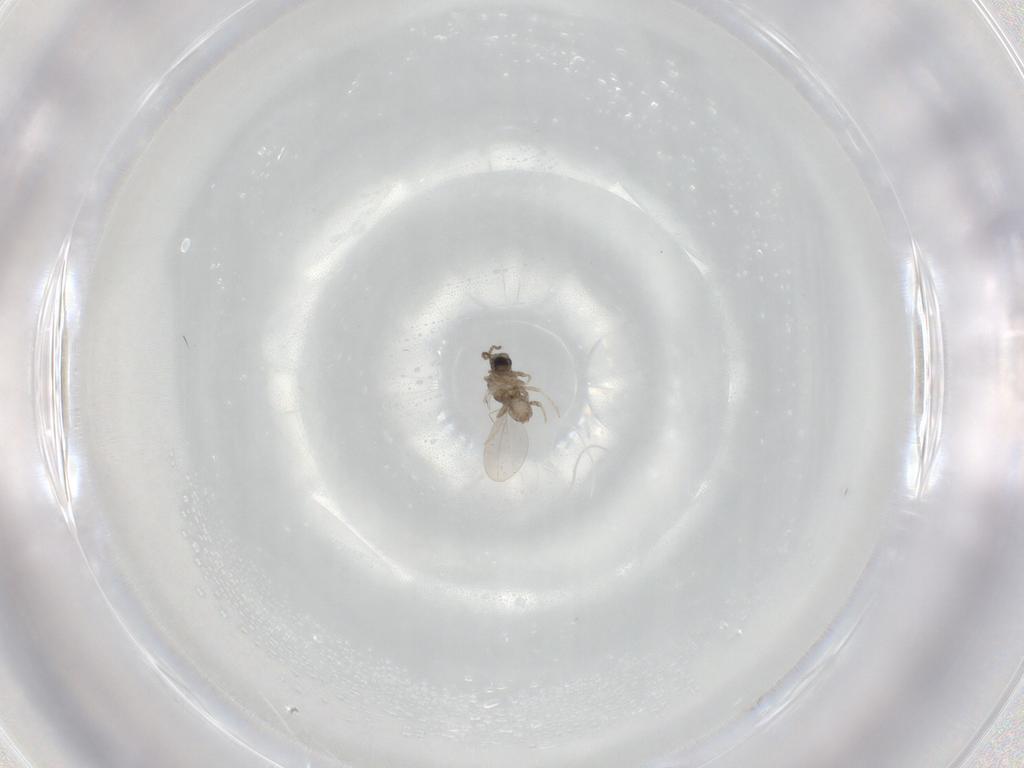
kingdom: Animalia
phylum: Arthropoda
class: Insecta
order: Diptera
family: Cecidomyiidae
